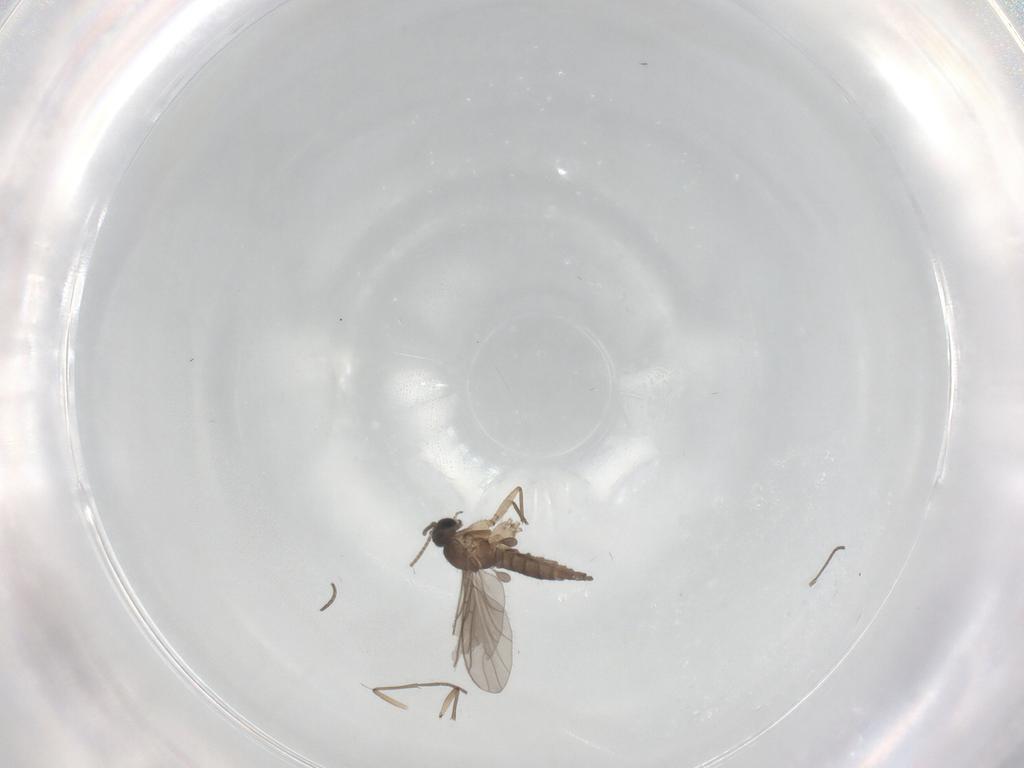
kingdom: Animalia
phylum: Arthropoda
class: Insecta
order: Diptera
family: Sciaridae
